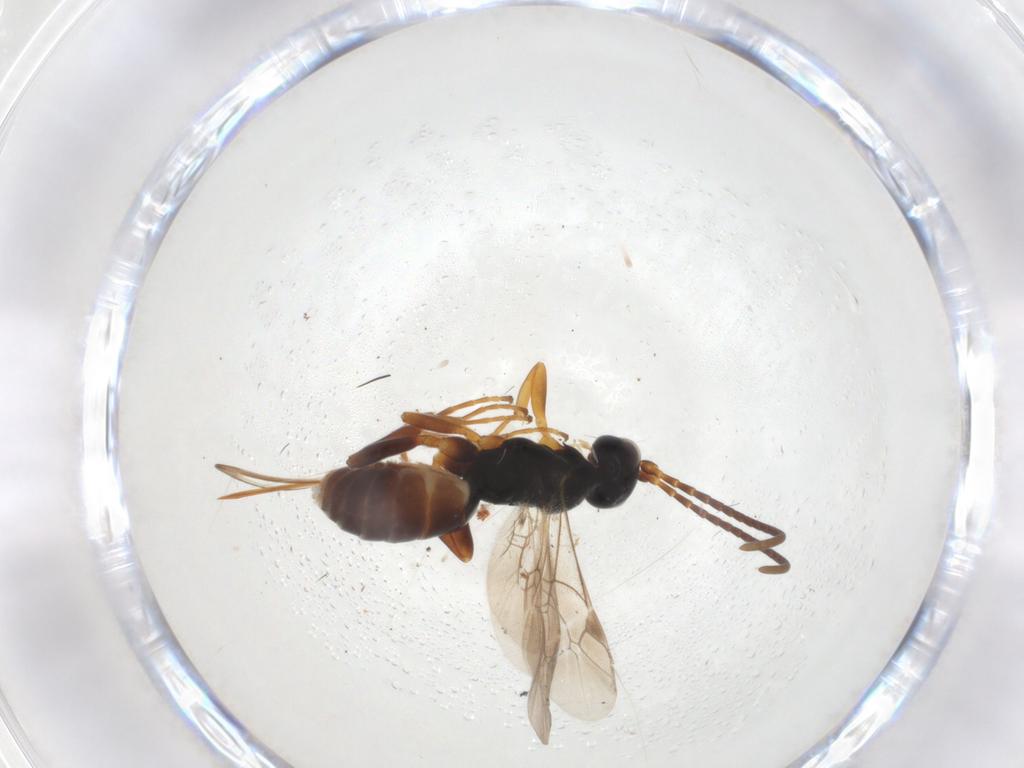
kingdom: Animalia
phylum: Arthropoda
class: Insecta
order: Hymenoptera
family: Ichneumonidae
